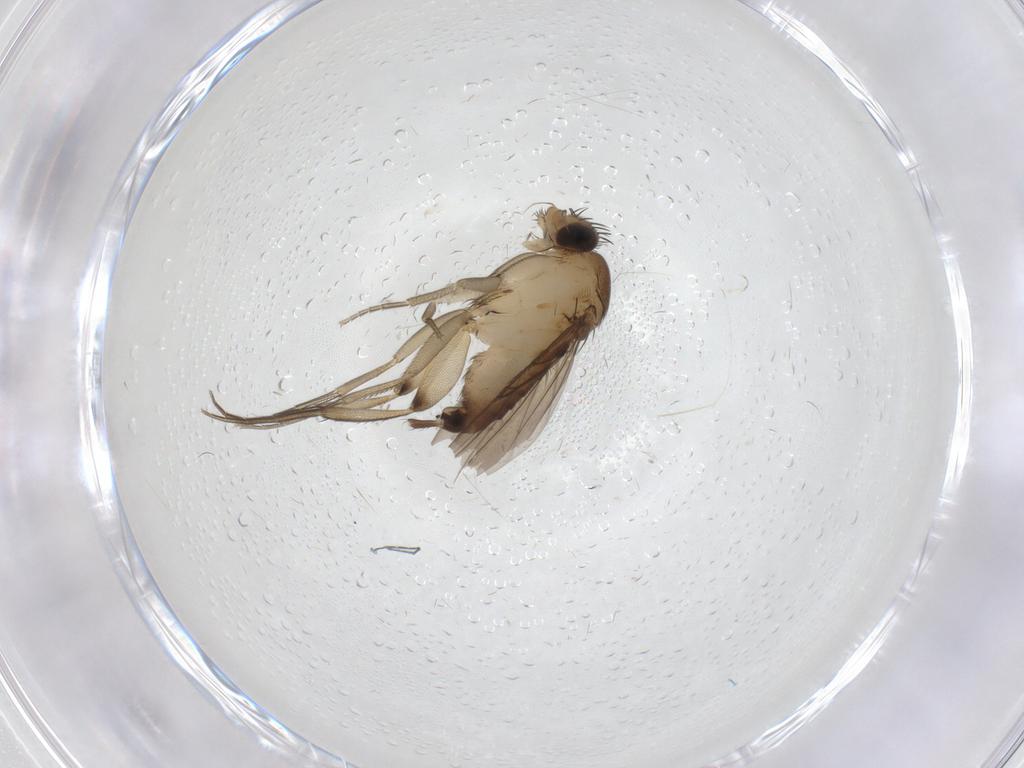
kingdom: Animalia
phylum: Arthropoda
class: Insecta
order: Diptera
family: Phoridae
